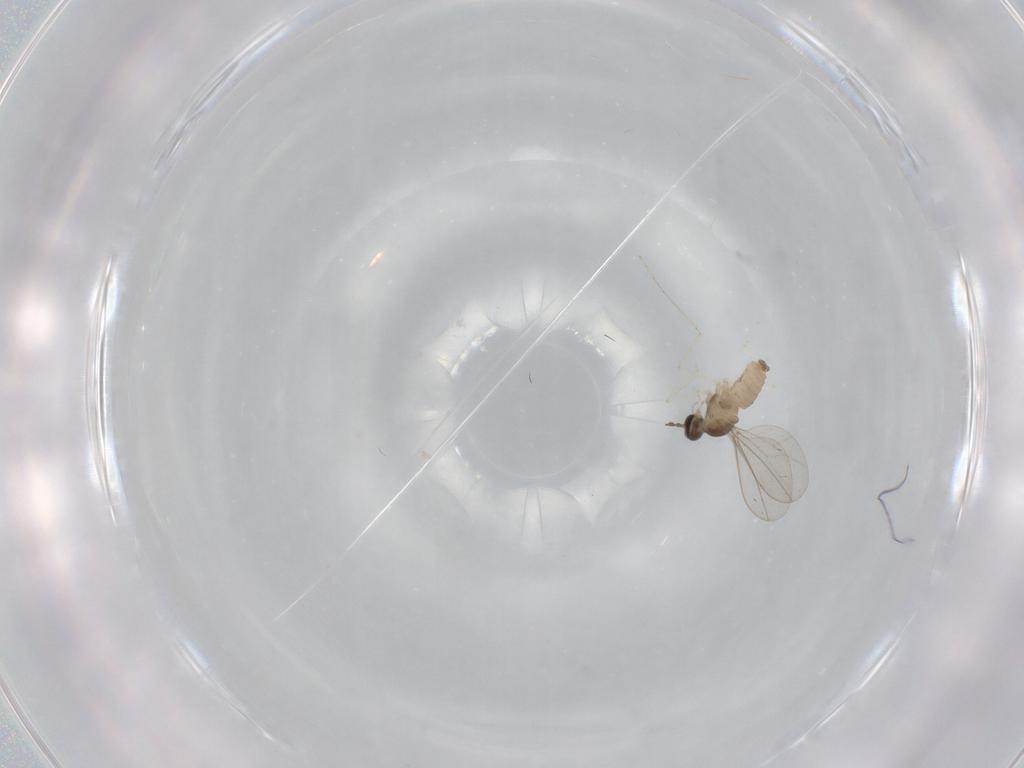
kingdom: Animalia
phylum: Arthropoda
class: Insecta
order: Diptera
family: Cecidomyiidae
